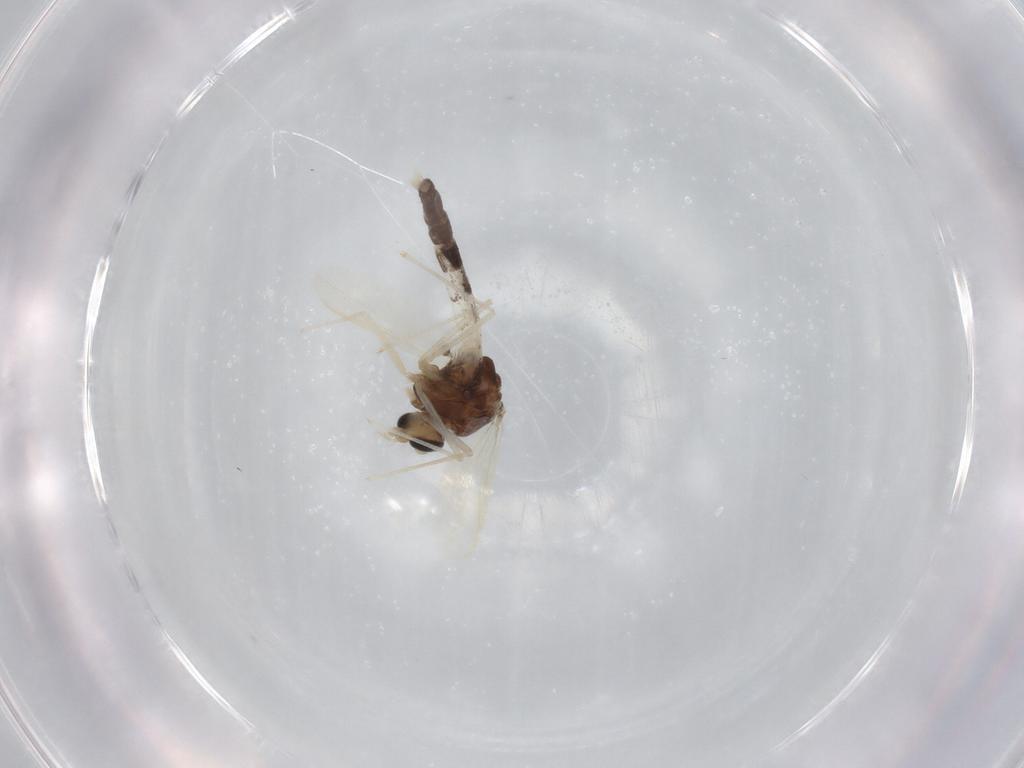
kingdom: Animalia
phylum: Arthropoda
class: Insecta
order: Diptera
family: Chironomidae
